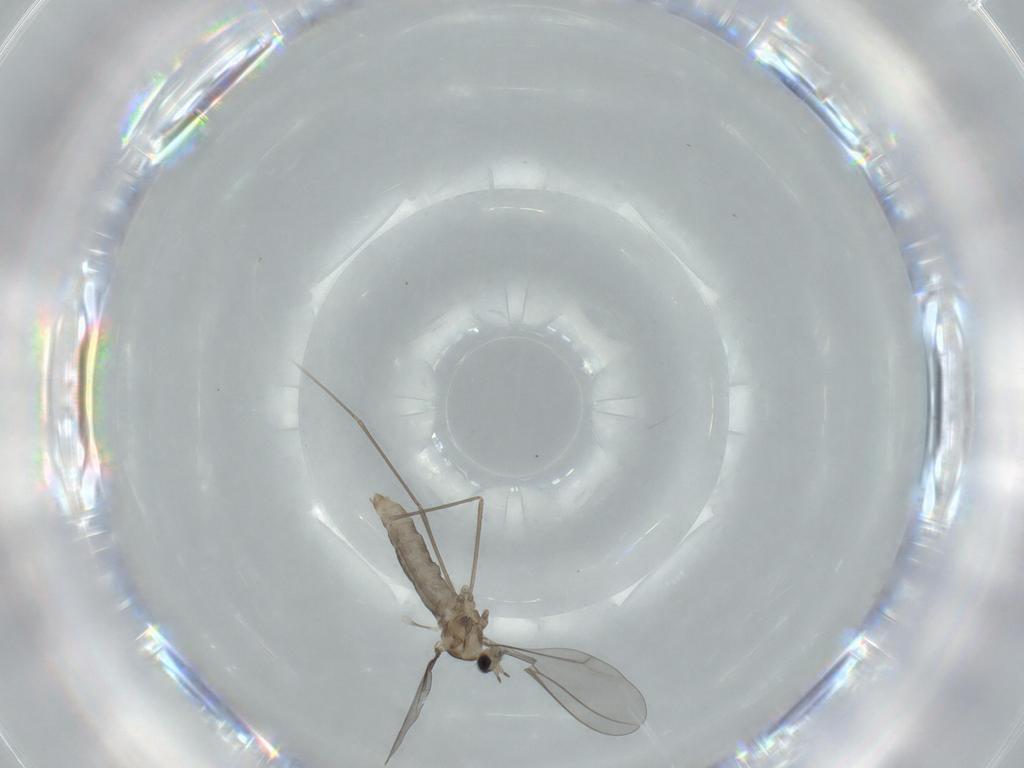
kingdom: Animalia
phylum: Arthropoda
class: Insecta
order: Diptera
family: Cecidomyiidae
